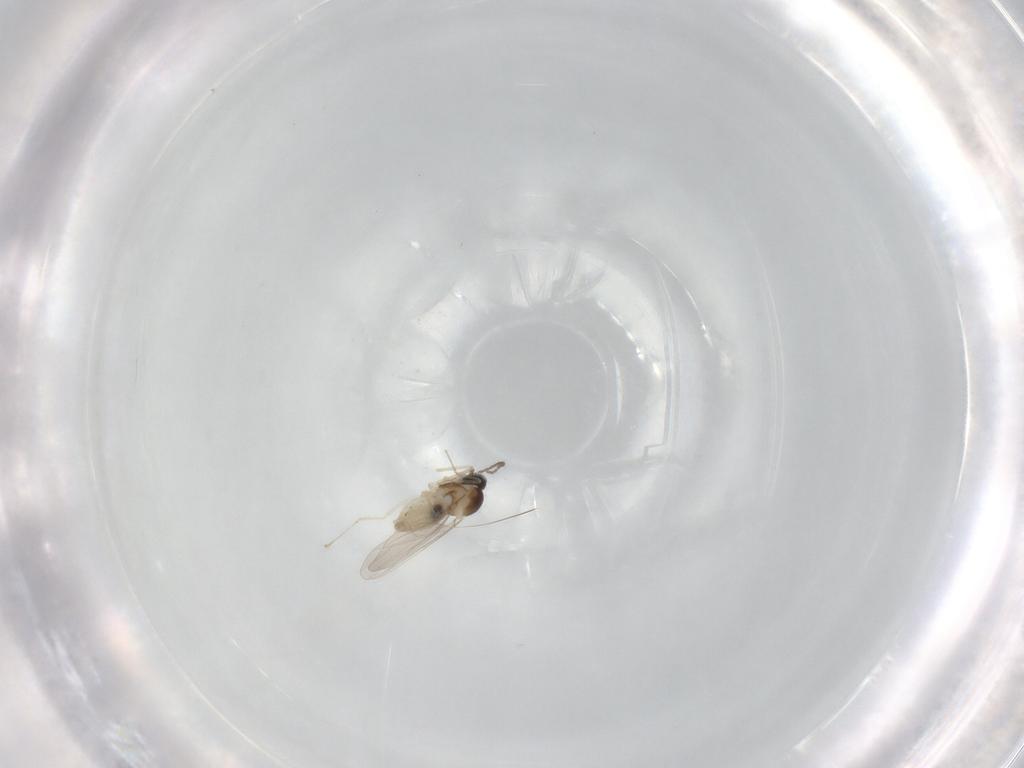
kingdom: Animalia
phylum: Arthropoda
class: Insecta
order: Diptera
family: Cecidomyiidae
